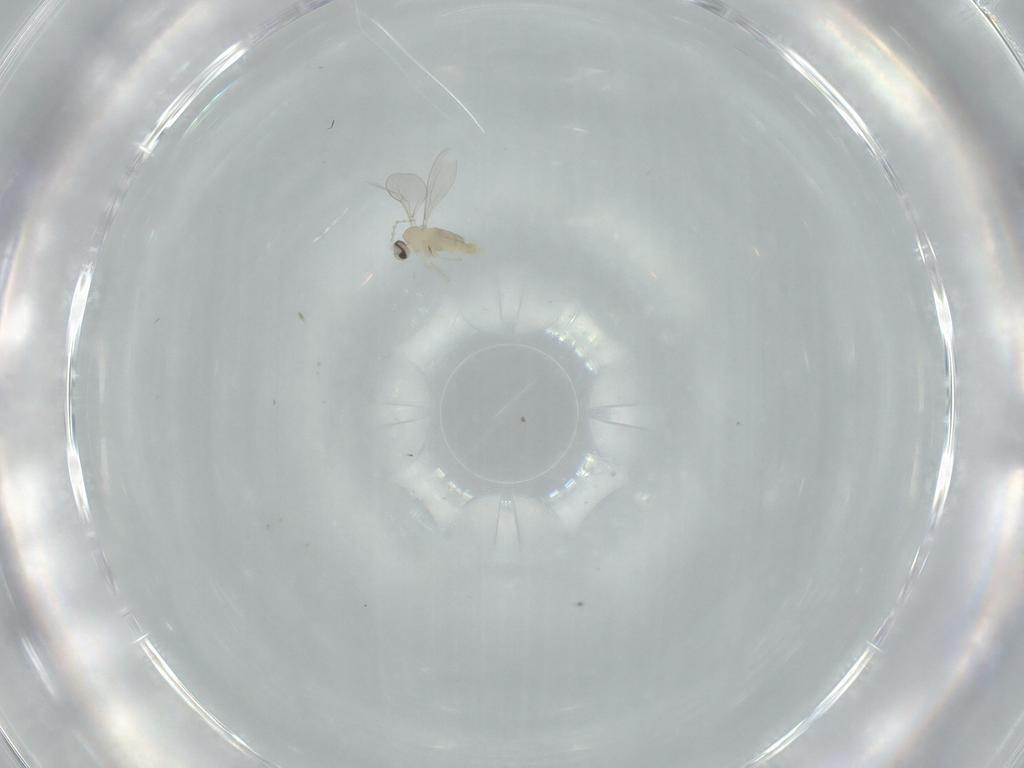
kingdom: Animalia
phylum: Arthropoda
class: Insecta
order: Diptera
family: Cecidomyiidae
